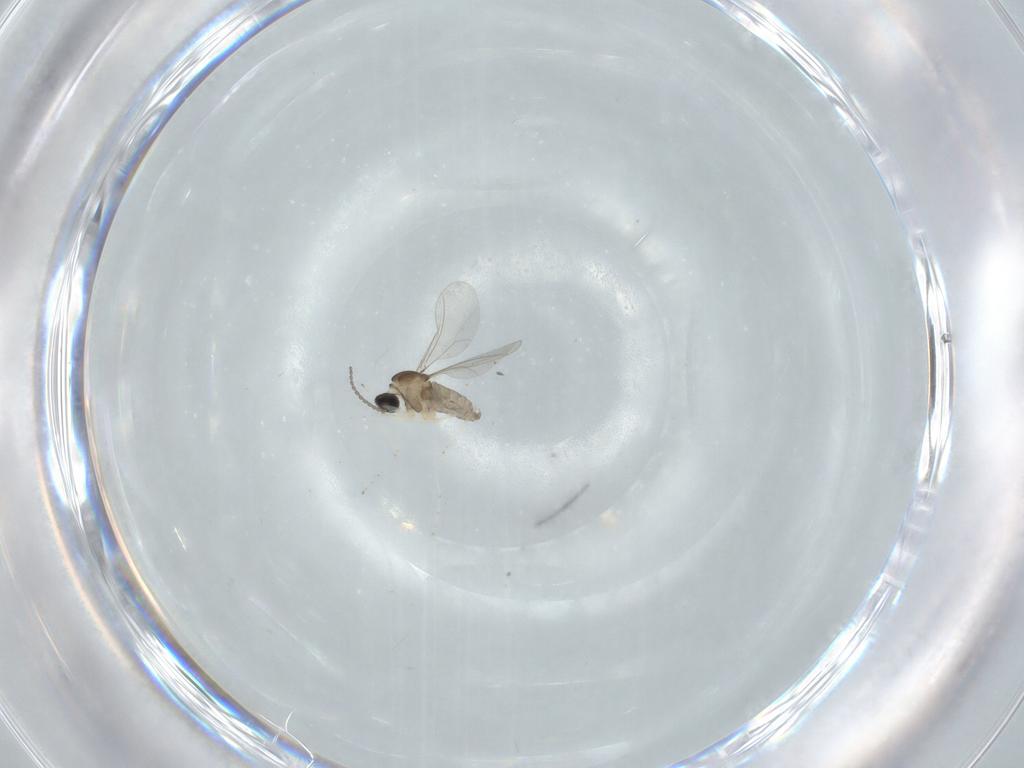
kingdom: Animalia
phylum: Arthropoda
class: Insecta
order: Diptera
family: Cecidomyiidae
